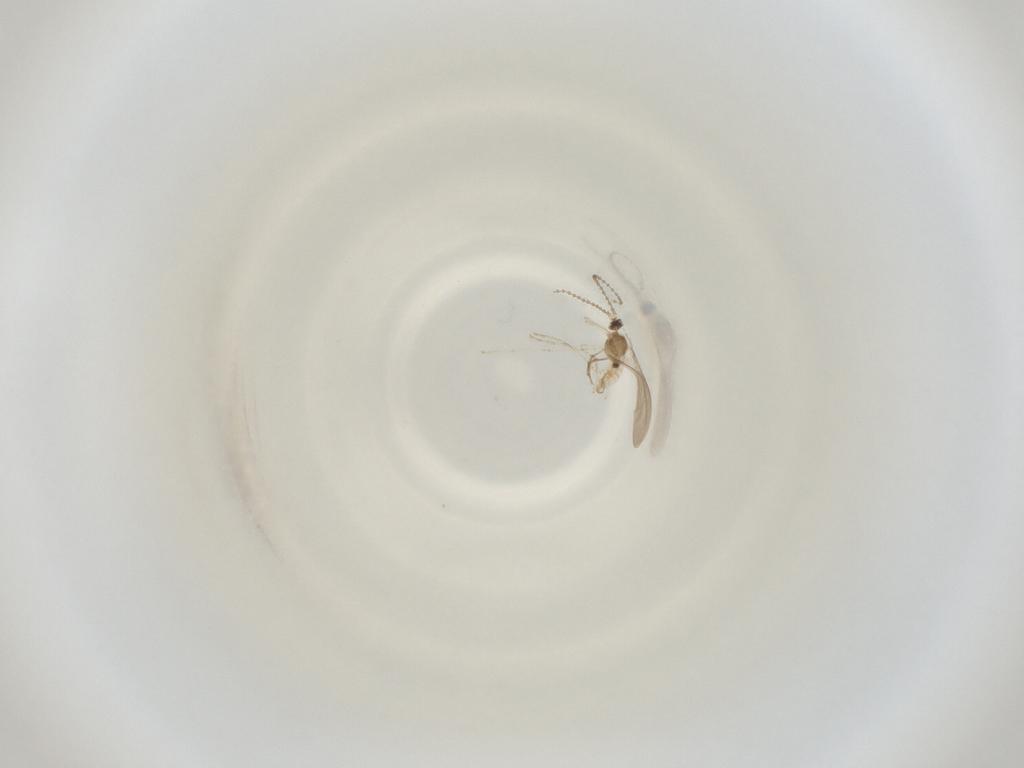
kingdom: Animalia
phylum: Arthropoda
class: Insecta
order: Diptera
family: Cecidomyiidae
